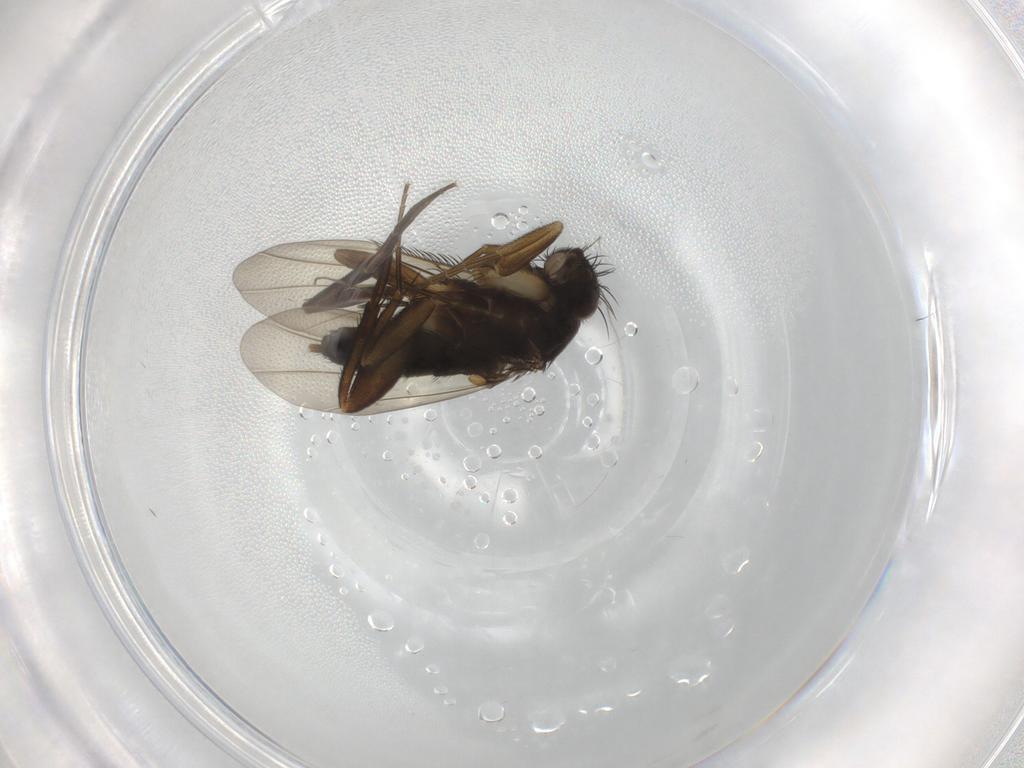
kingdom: Animalia
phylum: Arthropoda
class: Insecta
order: Diptera
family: Phoridae
